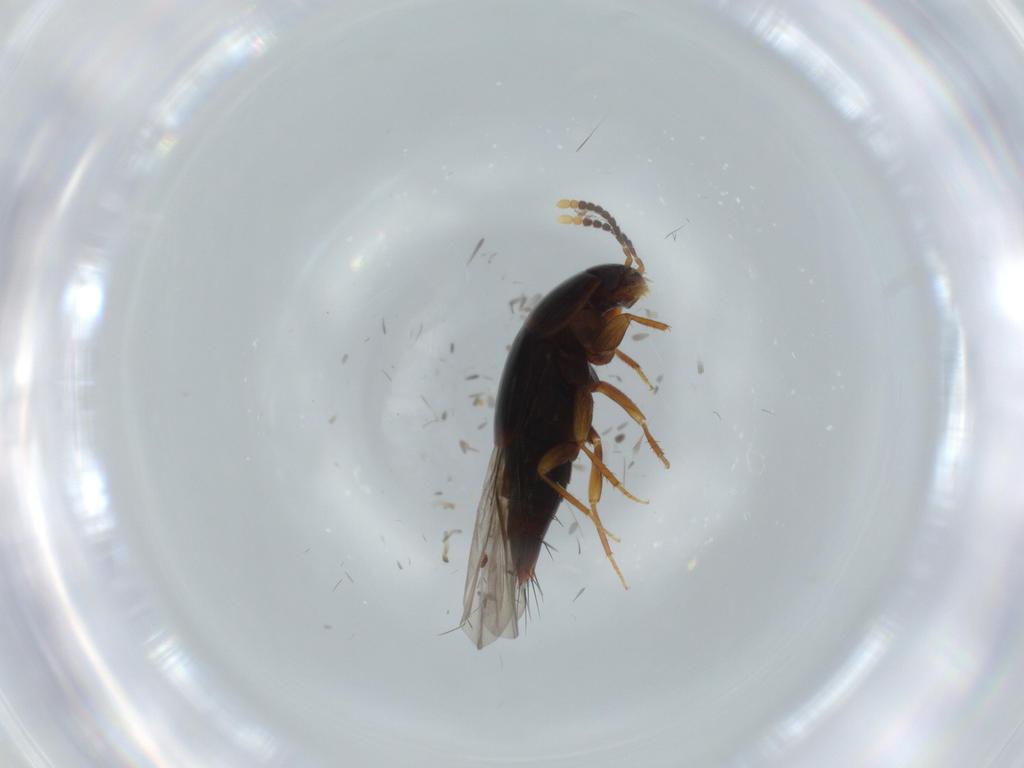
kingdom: Animalia
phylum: Arthropoda
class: Insecta
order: Coleoptera
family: Staphylinidae
